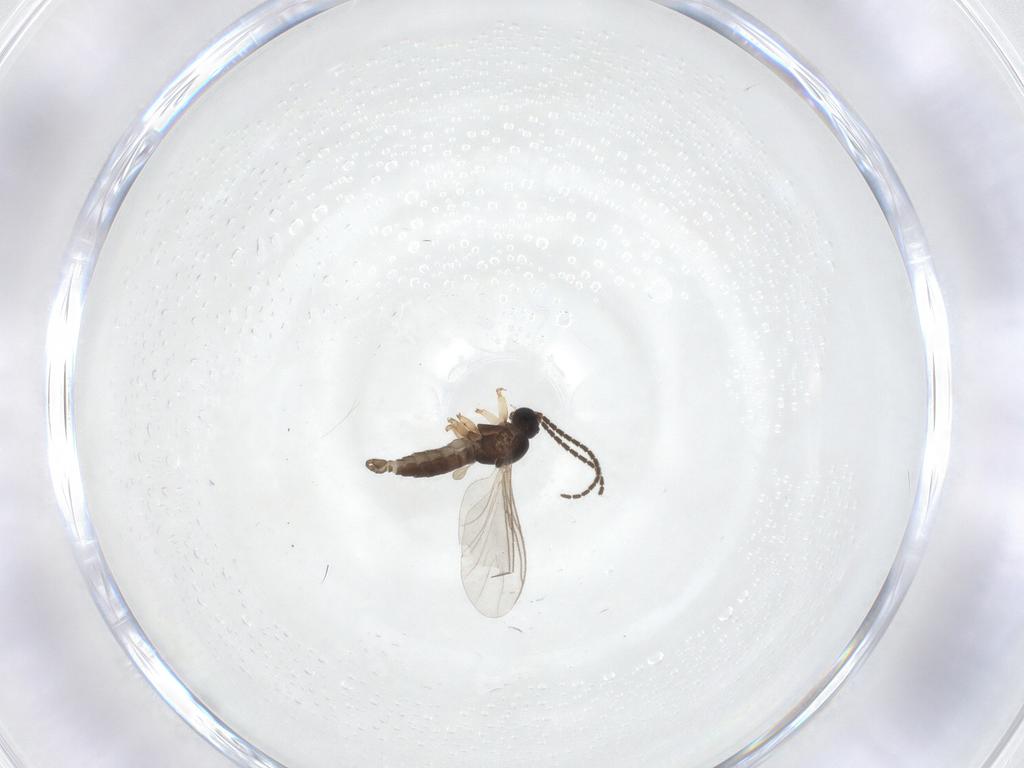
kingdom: Animalia
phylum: Arthropoda
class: Insecta
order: Diptera
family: Sciaridae
